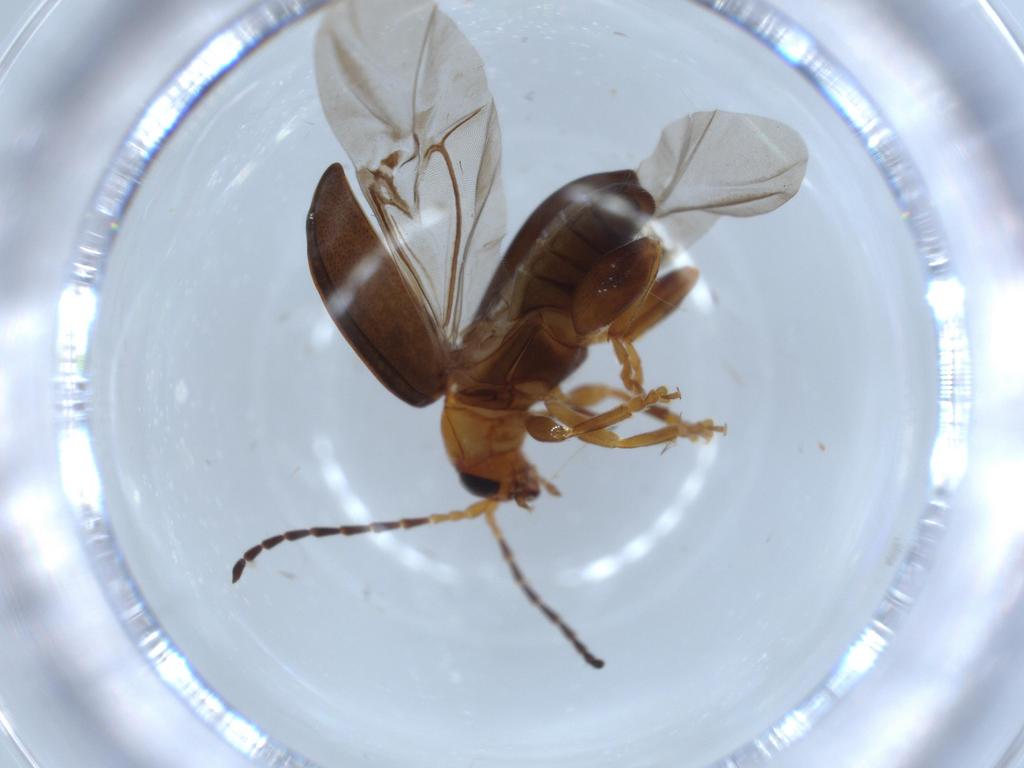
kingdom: Animalia
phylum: Arthropoda
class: Insecta
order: Coleoptera
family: Chrysomelidae
